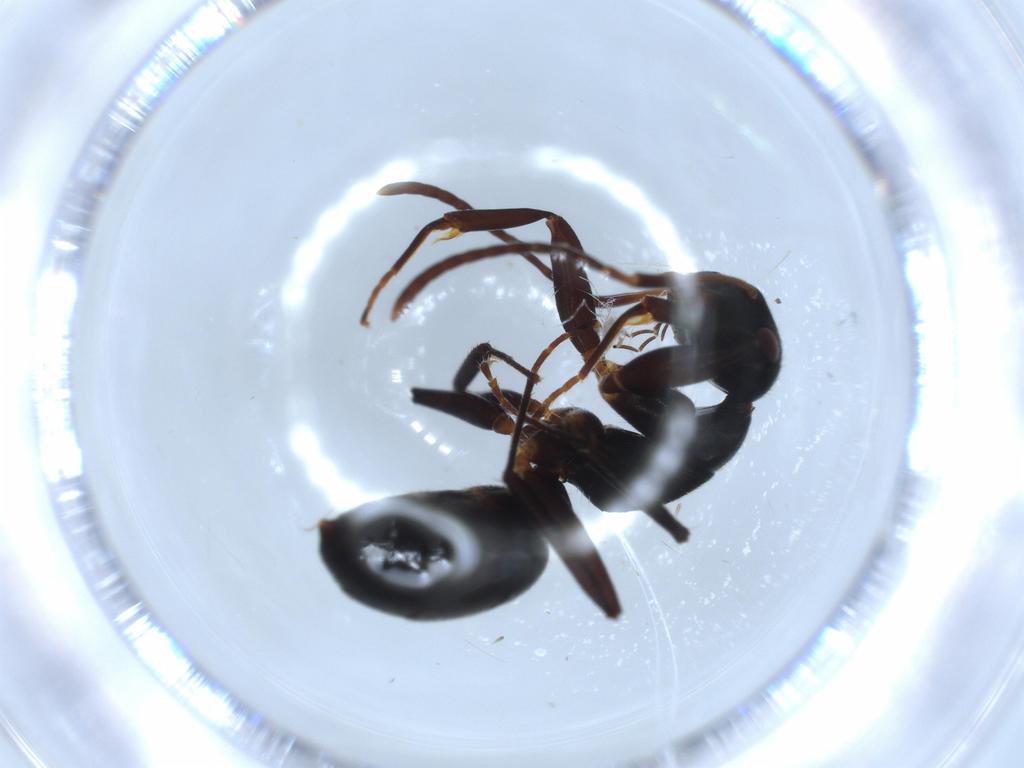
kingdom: Animalia
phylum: Arthropoda
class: Insecta
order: Hymenoptera
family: Formicidae
